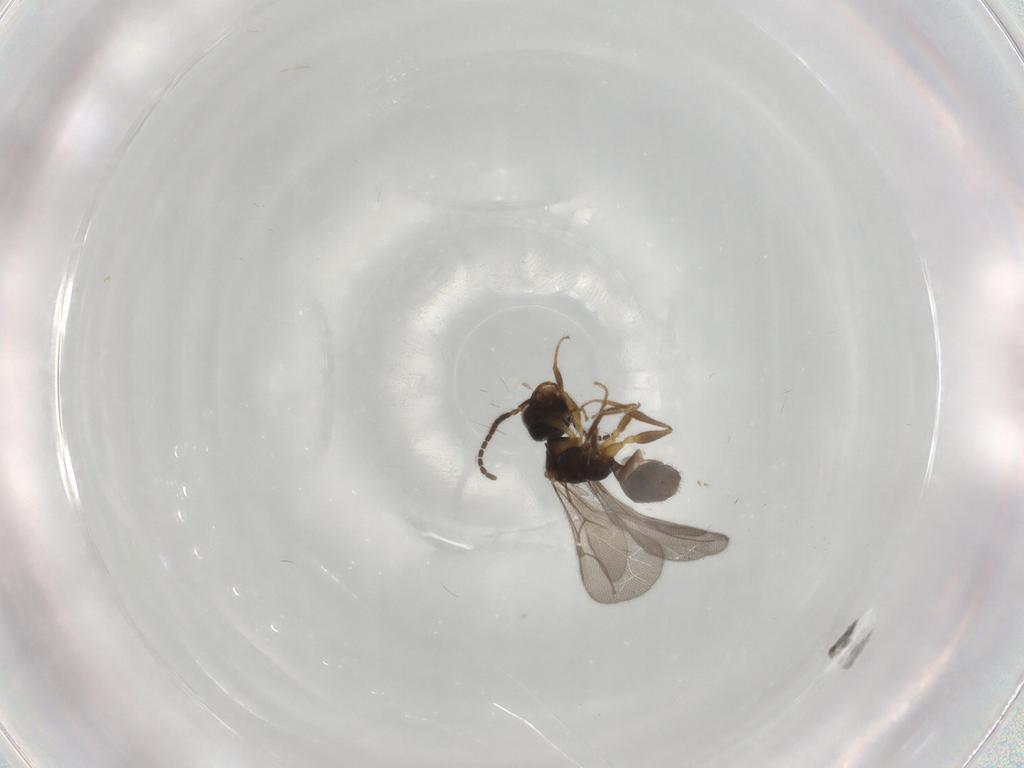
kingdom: Animalia
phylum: Arthropoda
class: Insecta
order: Hymenoptera
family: Bethylidae
